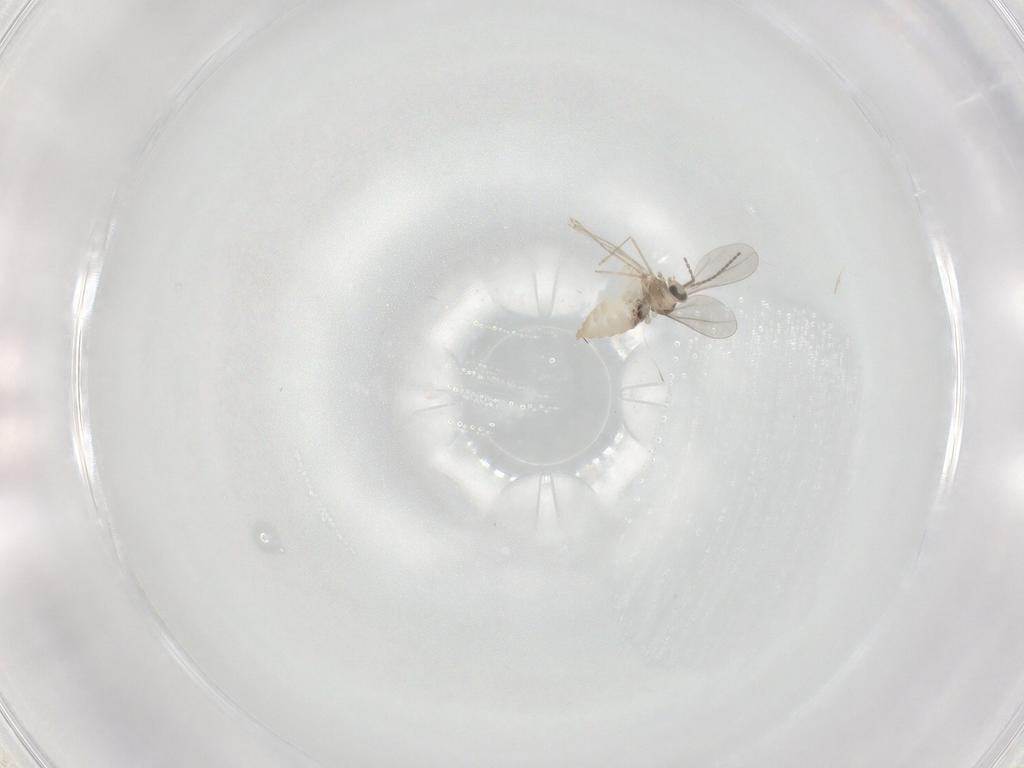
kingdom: Animalia
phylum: Arthropoda
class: Insecta
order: Diptera
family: Cecidomyiidae
